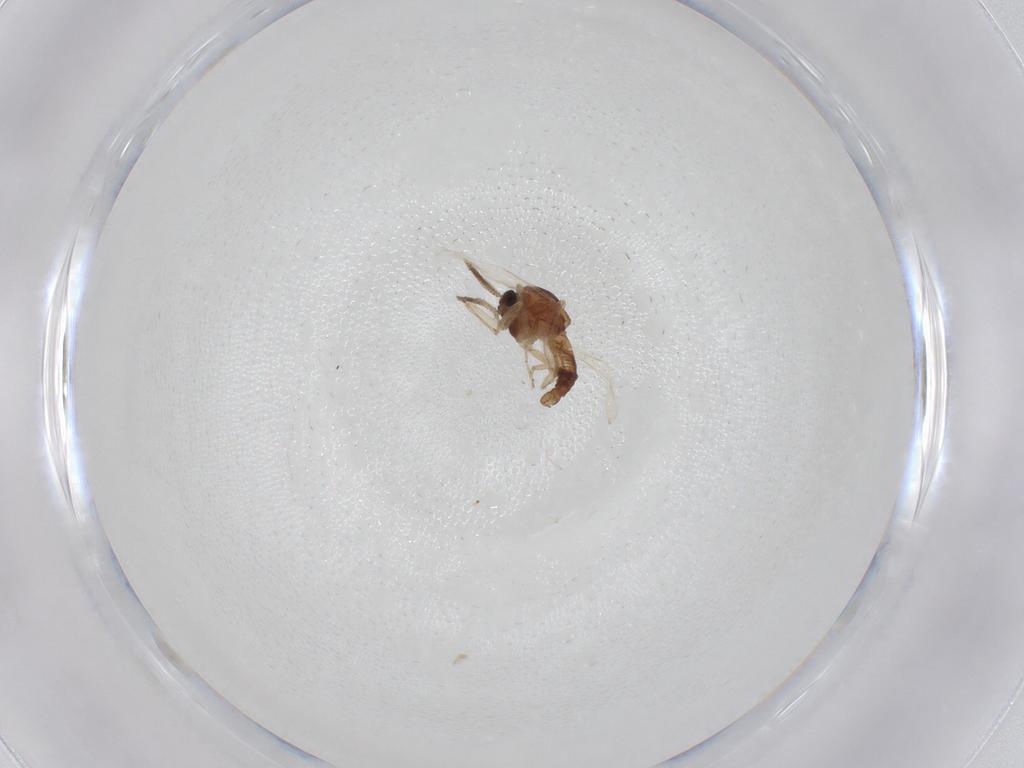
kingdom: Animalia
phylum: Arthropoda
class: Insecta
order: Diptera
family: Ceratopogonidae
